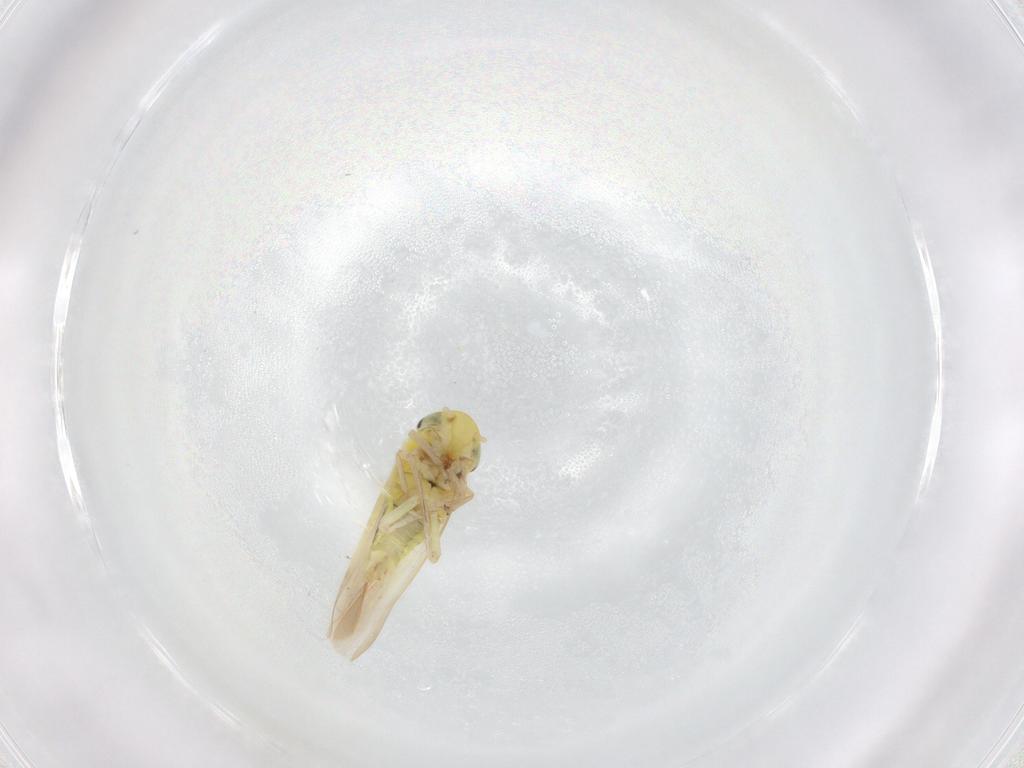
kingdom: Animalia
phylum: Arthropoda
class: Insecta
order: Hemiptera
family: Cicadellidae
